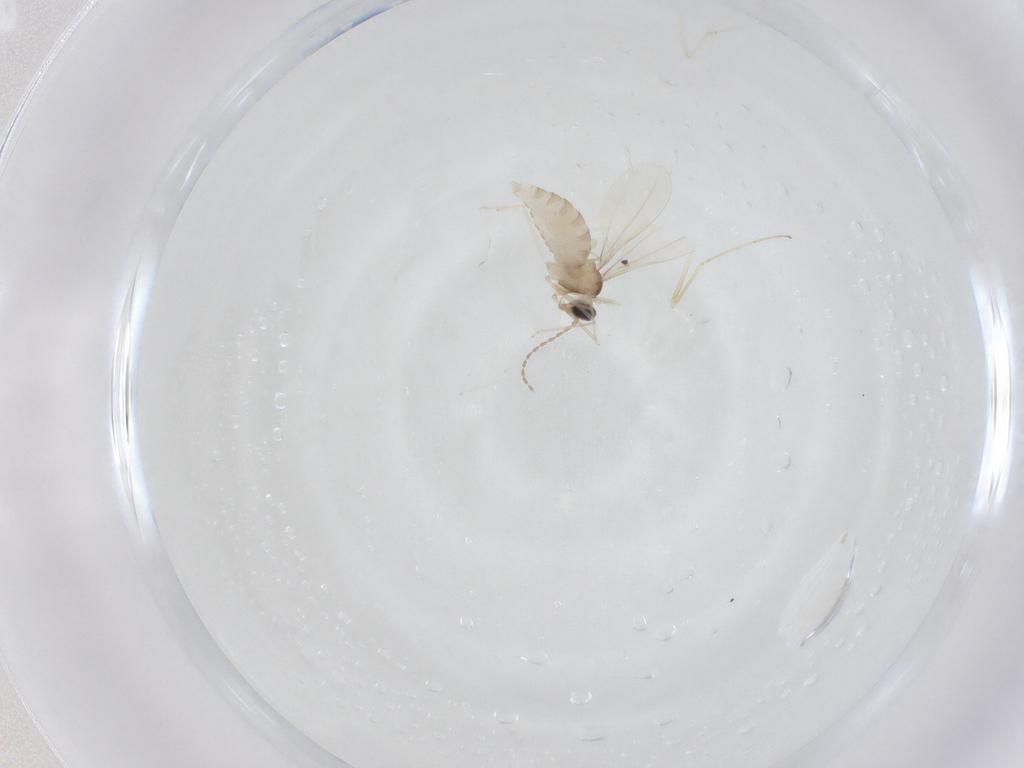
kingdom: Animalia
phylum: Arthropoda
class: Insecta
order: Diptera
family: Cecidomyiidae
